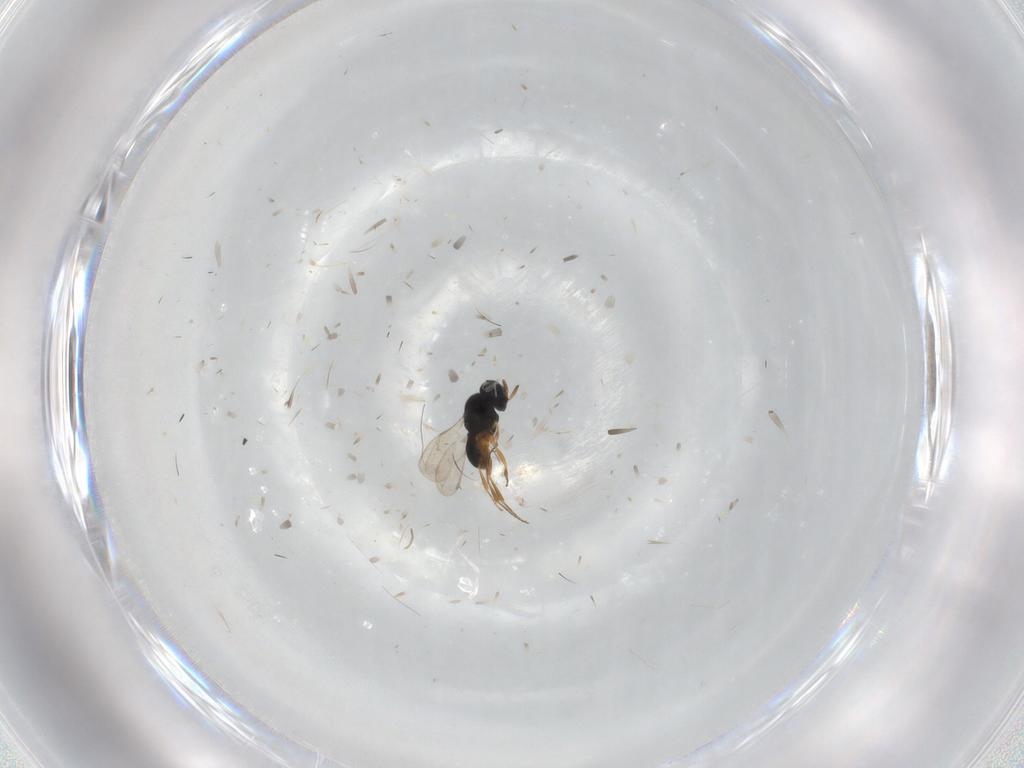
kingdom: Animalia
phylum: Arthropoda
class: Insecta
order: Hymenoptera
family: Scelionidae
